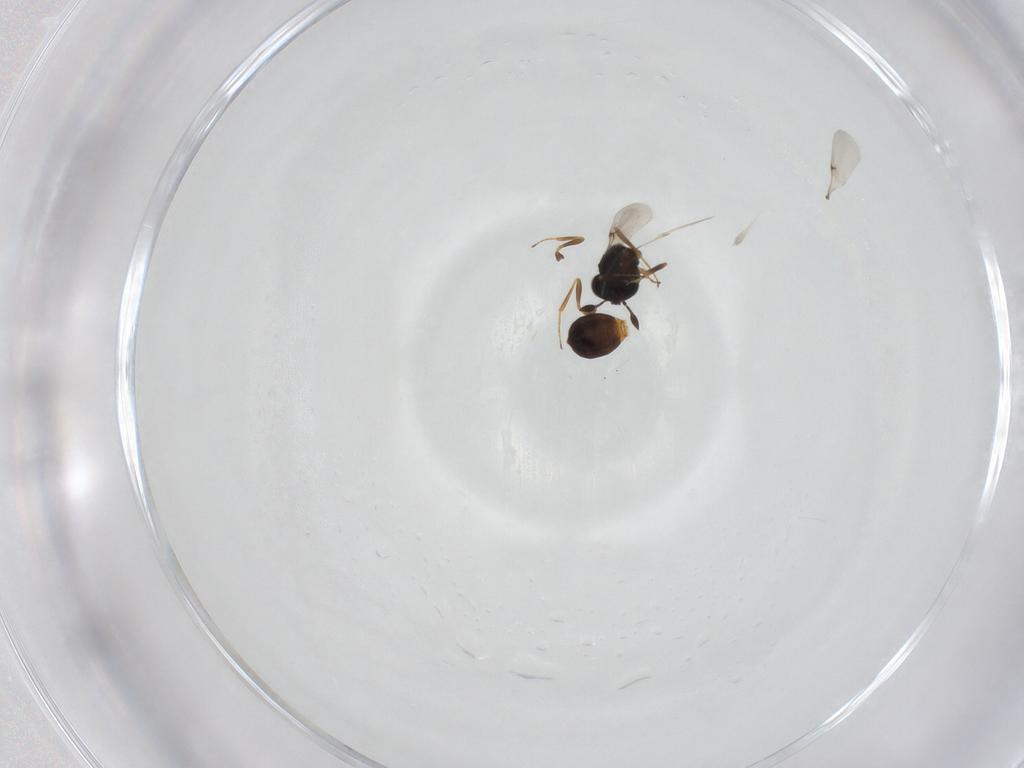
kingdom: Animalia
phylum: Arthropoda
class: Arachnida
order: Araneae
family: Pholcidae
